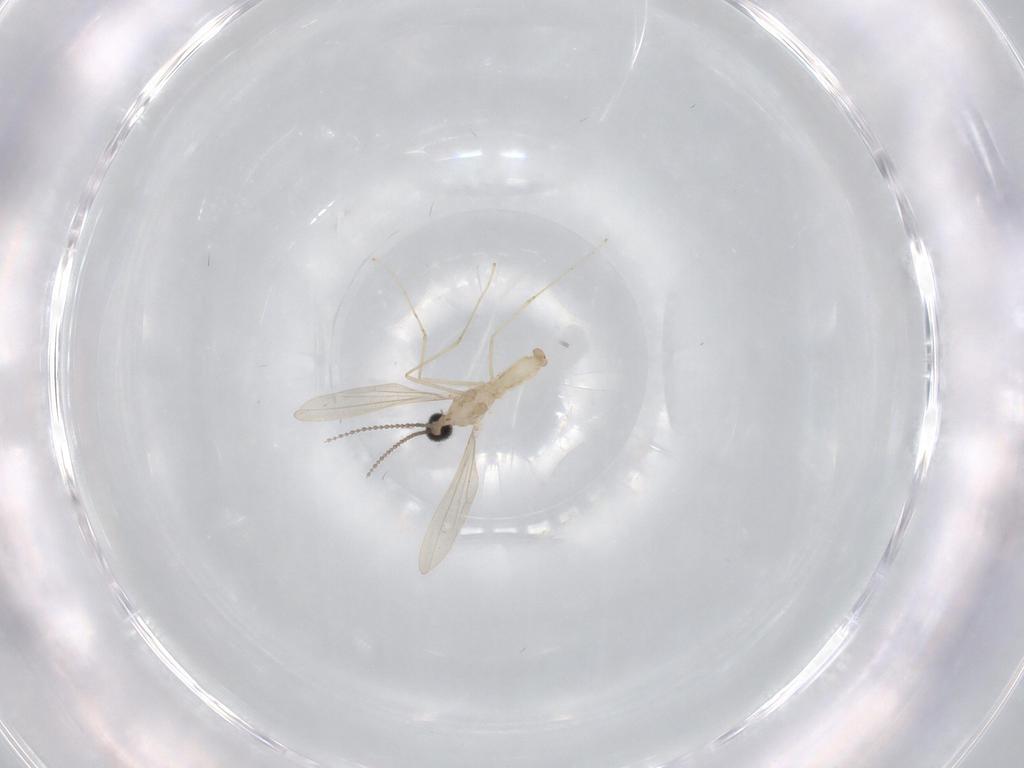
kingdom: Animalia
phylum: Arthropoda
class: Insecta
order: Diptera
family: Cecidomyiidae
